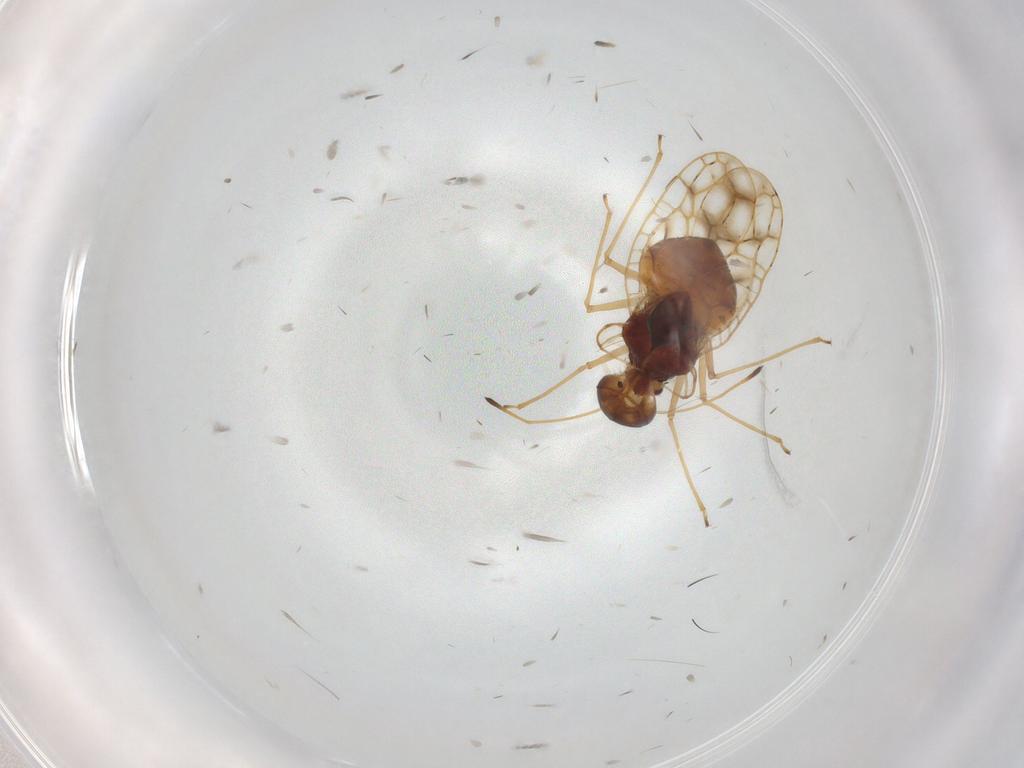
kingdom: Animalia
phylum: Arthropoda
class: Insecta
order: Hemiptera
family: Tingidae
